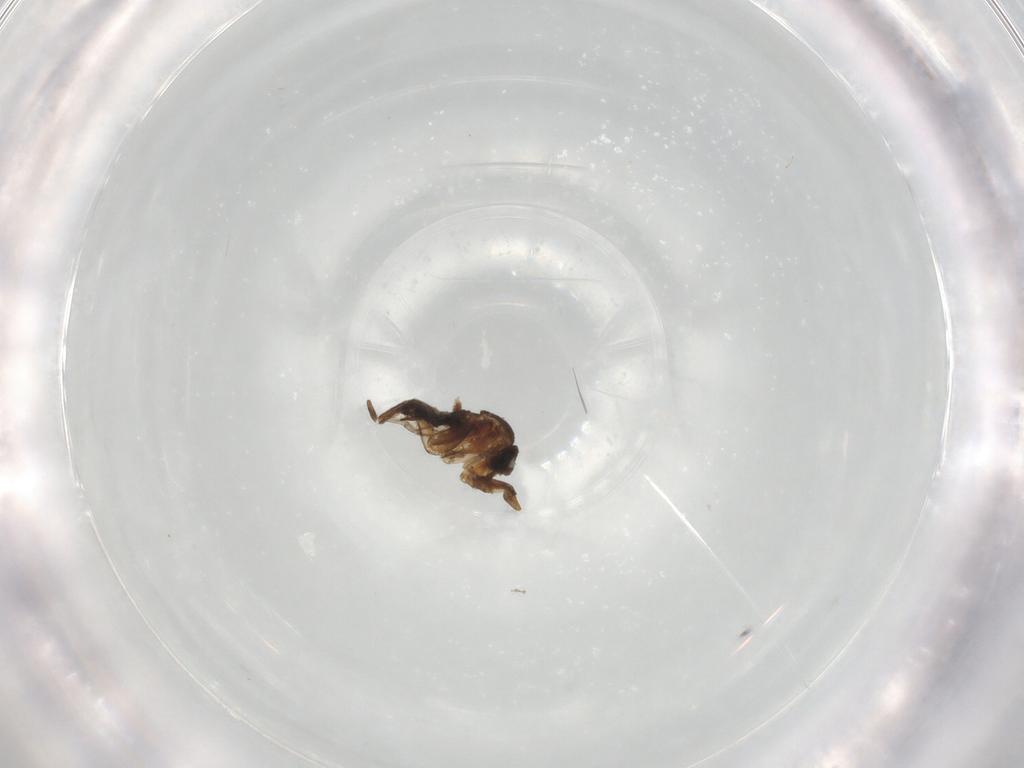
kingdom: Animalia
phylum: Arthropoda
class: Insecta
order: Diptera
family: Cecidomyiidae
